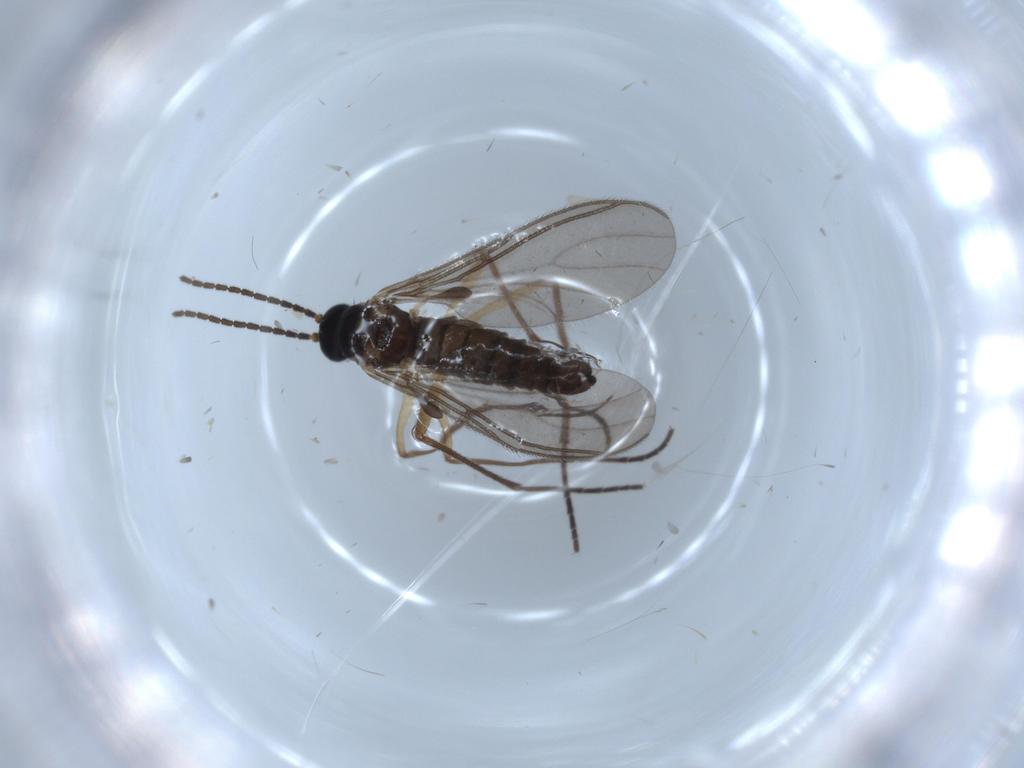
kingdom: Animalia
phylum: Arthropoda
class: Insecta
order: Diptera
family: Sciaridae
